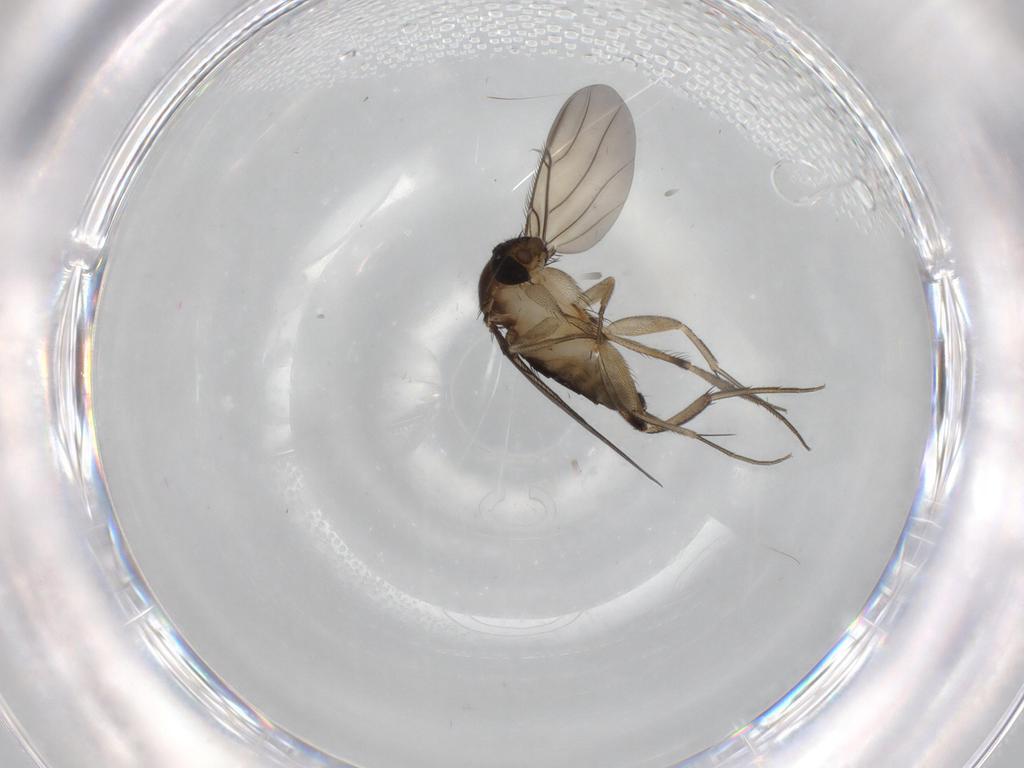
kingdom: Animalia
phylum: Arthropoda
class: Insecta
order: Diptera
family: Phoridae
